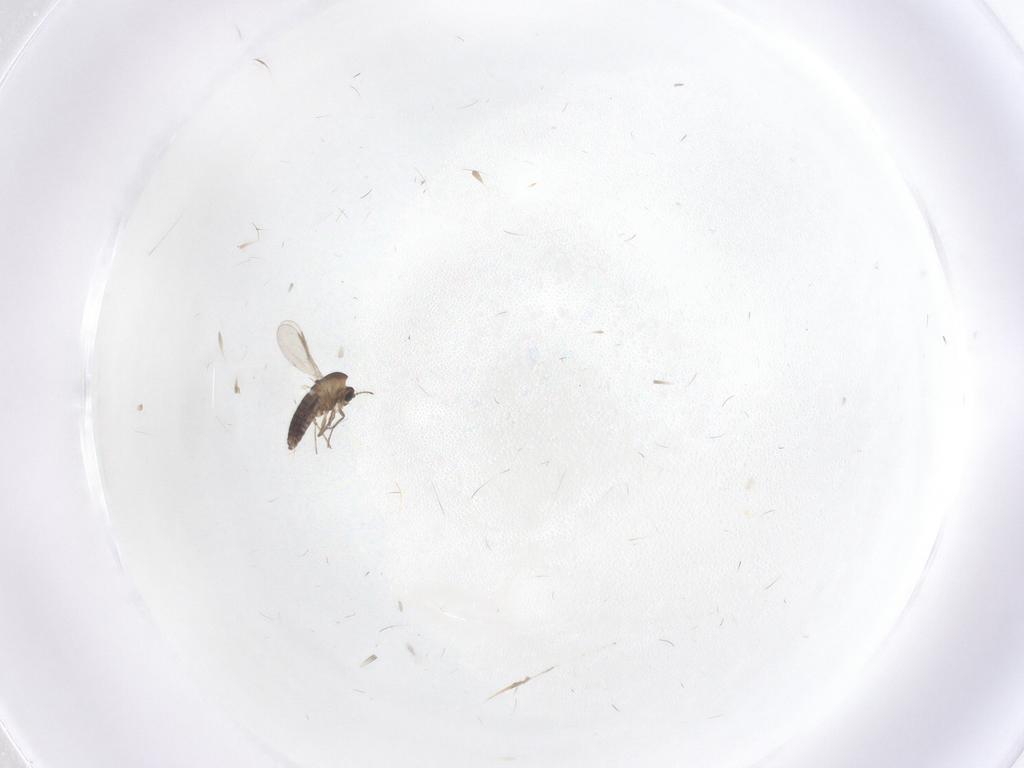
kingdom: Animalia
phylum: Arthropoda
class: Insecta
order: Diptera
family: Chironomidae
